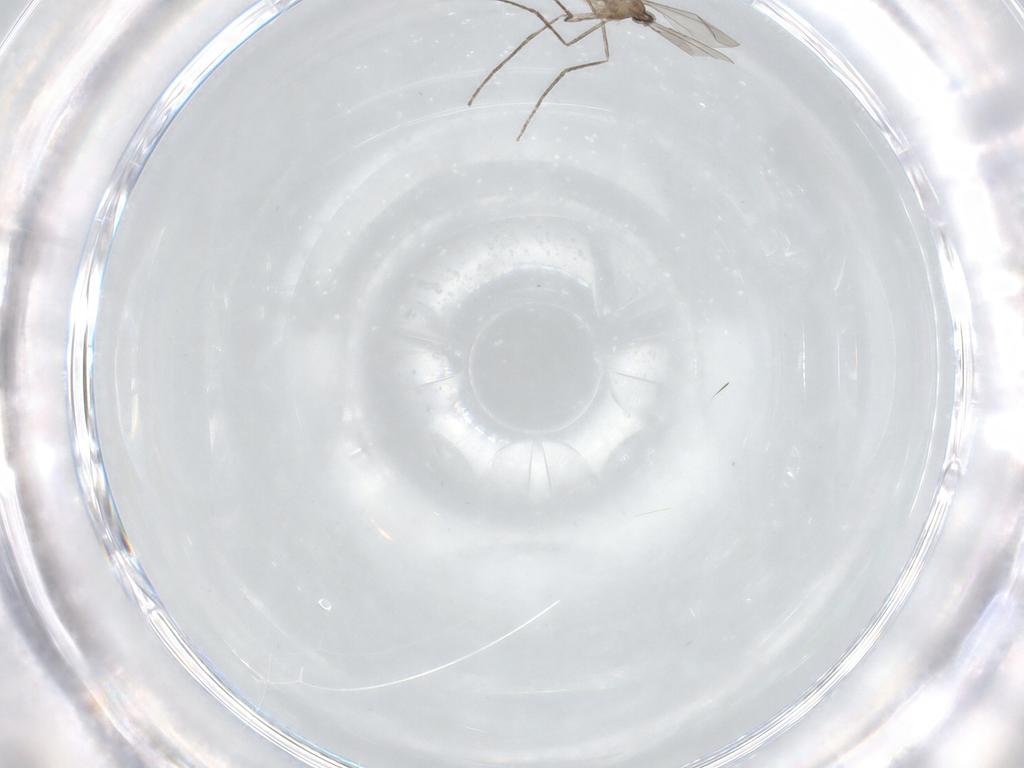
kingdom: Animalia
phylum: Arthropoda
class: Insecta
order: Diptera
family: Cecidomyiidae
